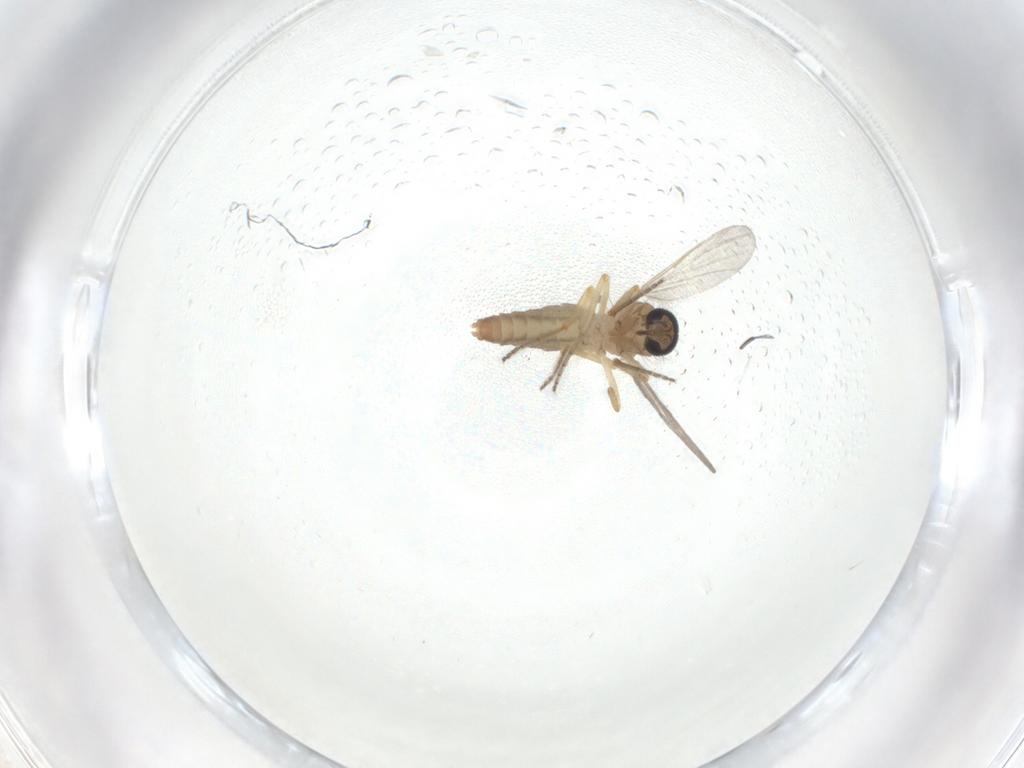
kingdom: Animalia
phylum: Arthropoda
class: Insecta
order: Diptera
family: Ceratopogonidae
